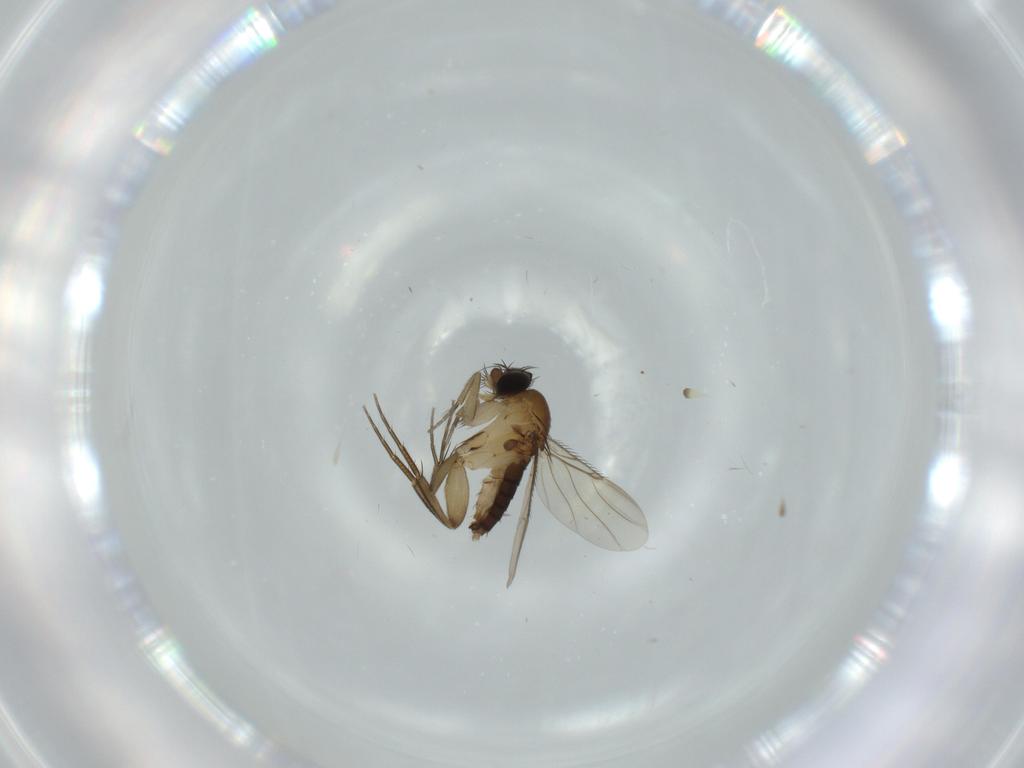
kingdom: Animalia
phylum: Arthropoda
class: Insecta
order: Diptera
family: Phoridae
